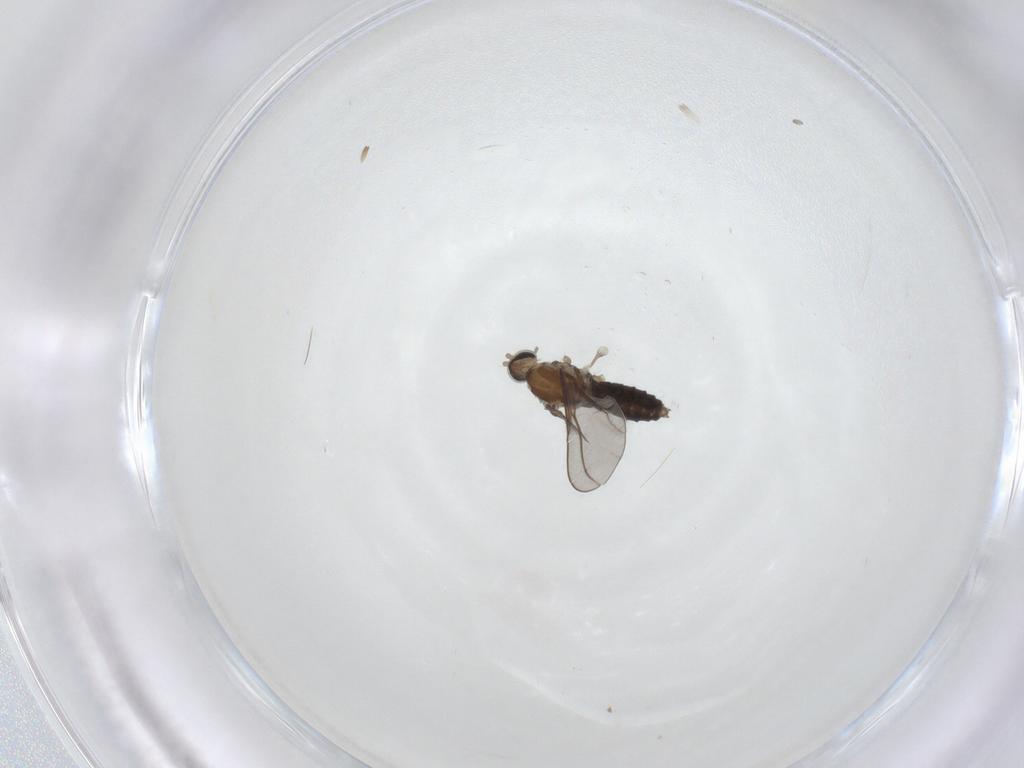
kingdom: Animalia
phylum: Arthropoda
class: Insecta
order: Diptera
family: Cecidomyiidae
